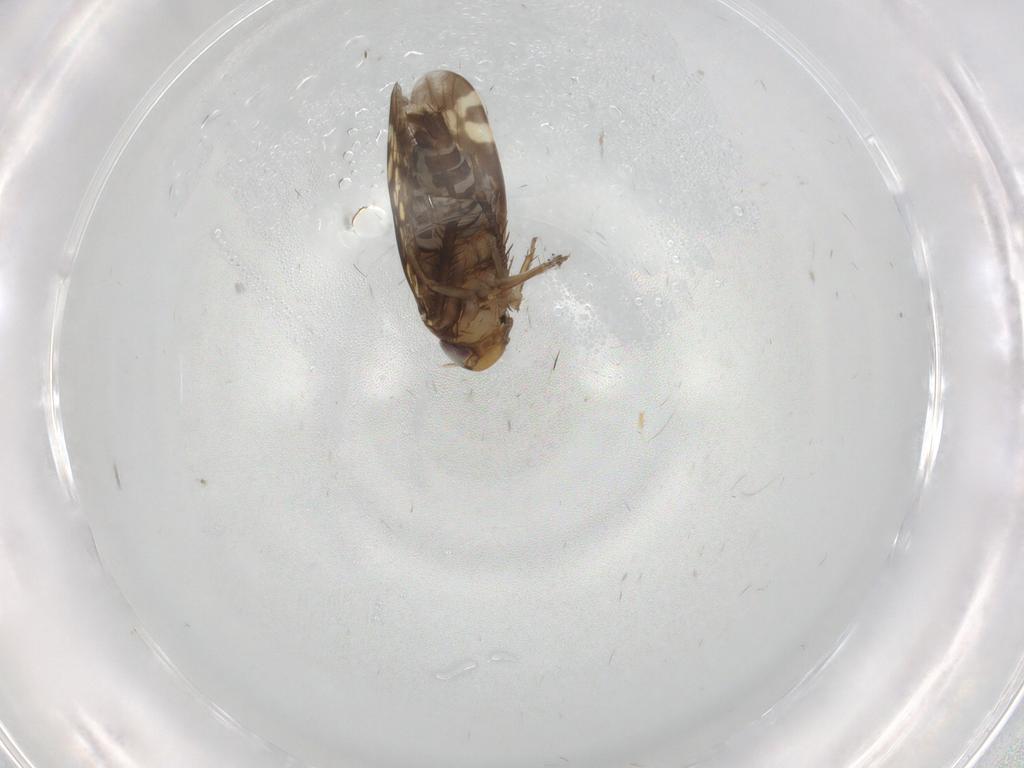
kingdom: Animalia
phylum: Arthropoda
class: Insecta
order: Hemiptera
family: Cicadellidae
